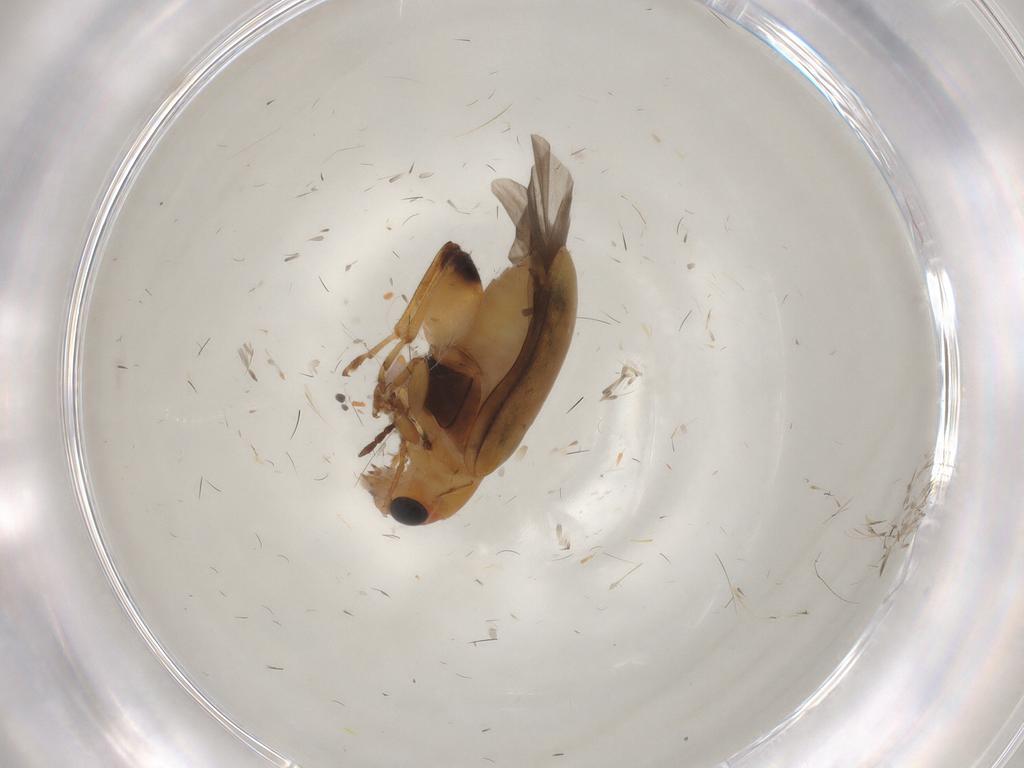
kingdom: Animalia
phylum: Arthropoda
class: Insecta
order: Coleoptera
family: Chrysomelidae
